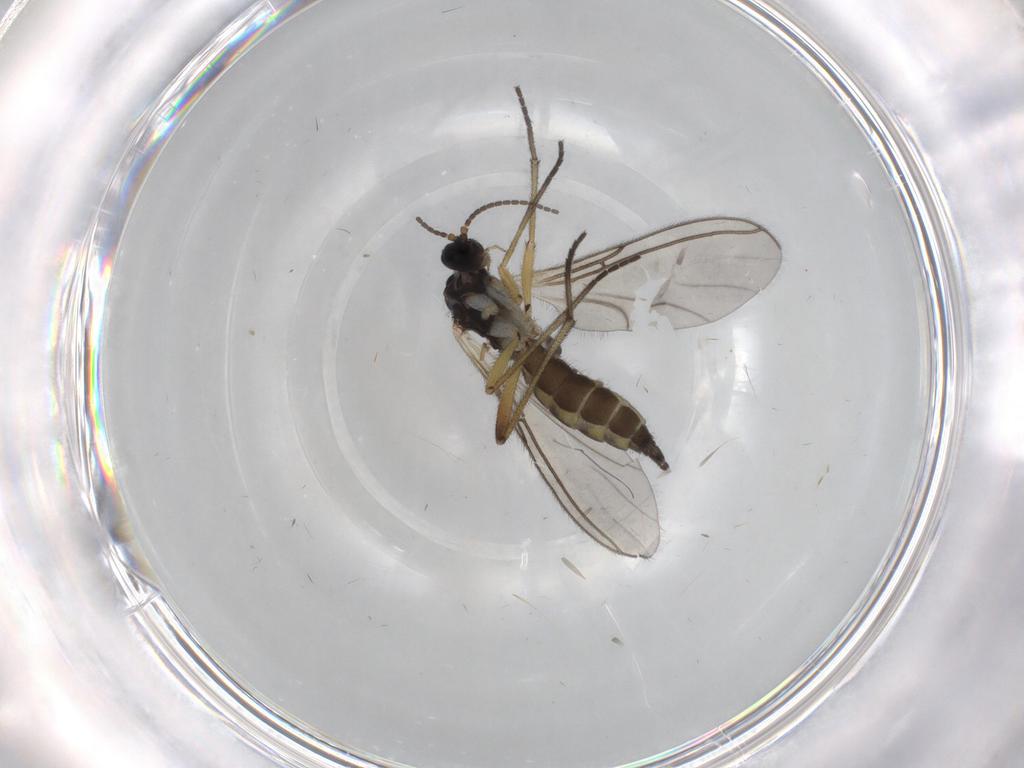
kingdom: Animalia
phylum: Arthropoda
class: Insecta
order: Diptera
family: Sciaridae
